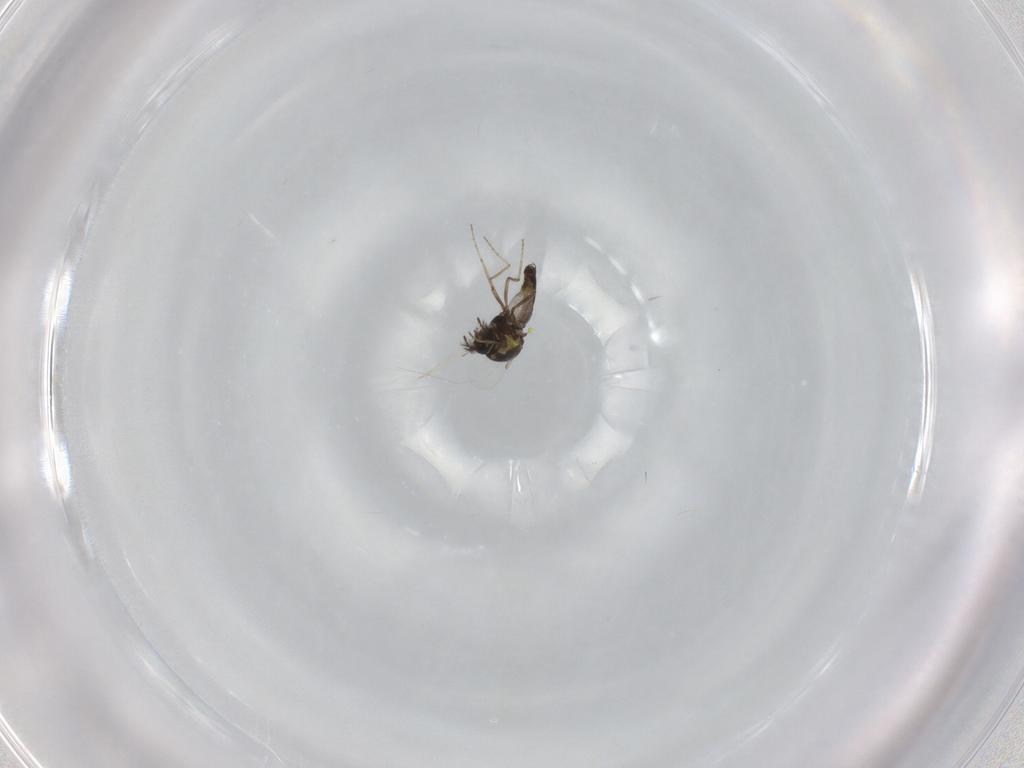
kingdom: Animalia
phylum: Arthropoda
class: Insecta
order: Diptera
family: Ceratopogonidae
